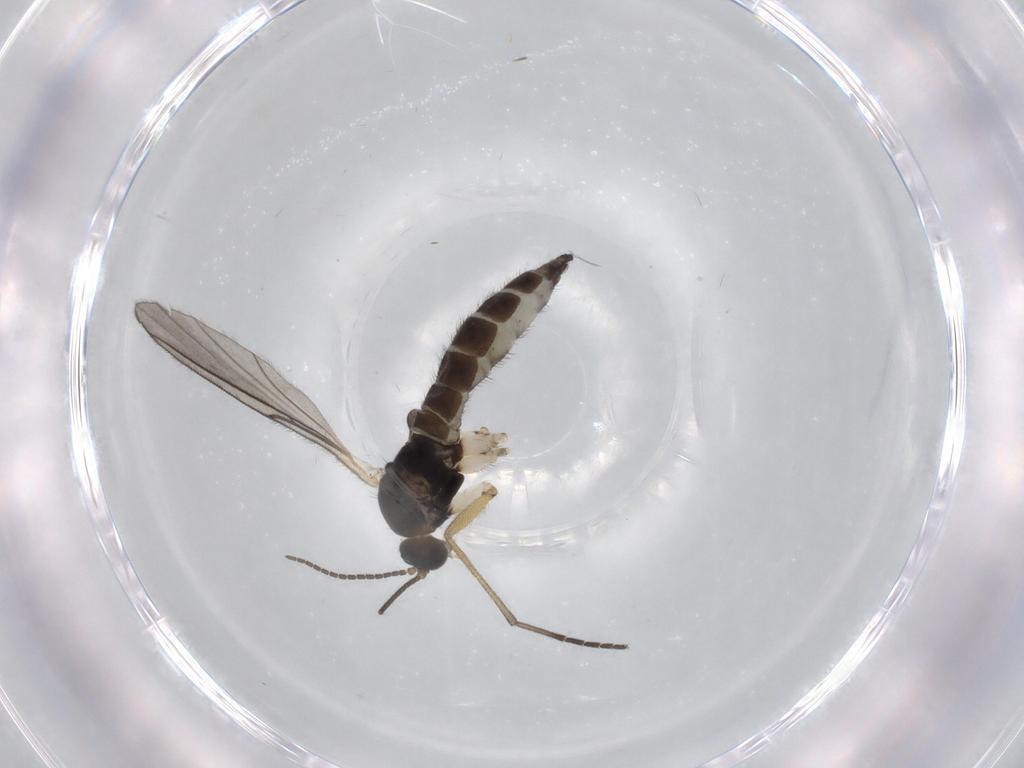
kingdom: Animalia
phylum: Arthropoda
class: Insecta
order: Diptera
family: Sciaridae
